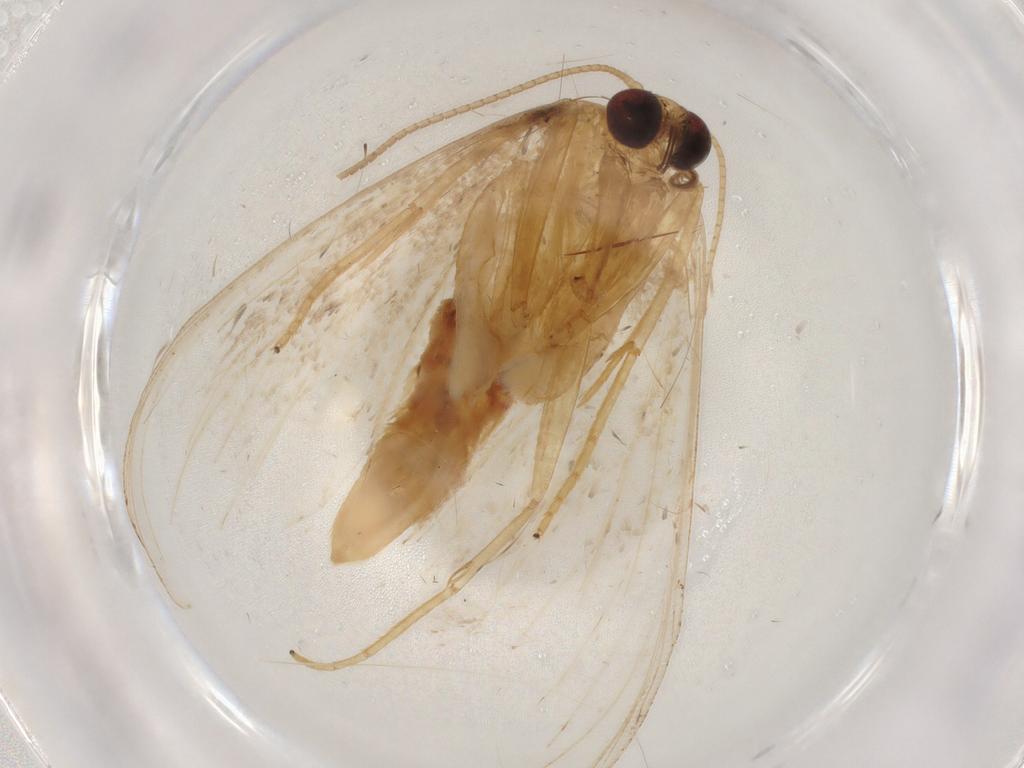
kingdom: Animalia
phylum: Arthropoda
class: Insecta
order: Lepidoptera
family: Geometridae
